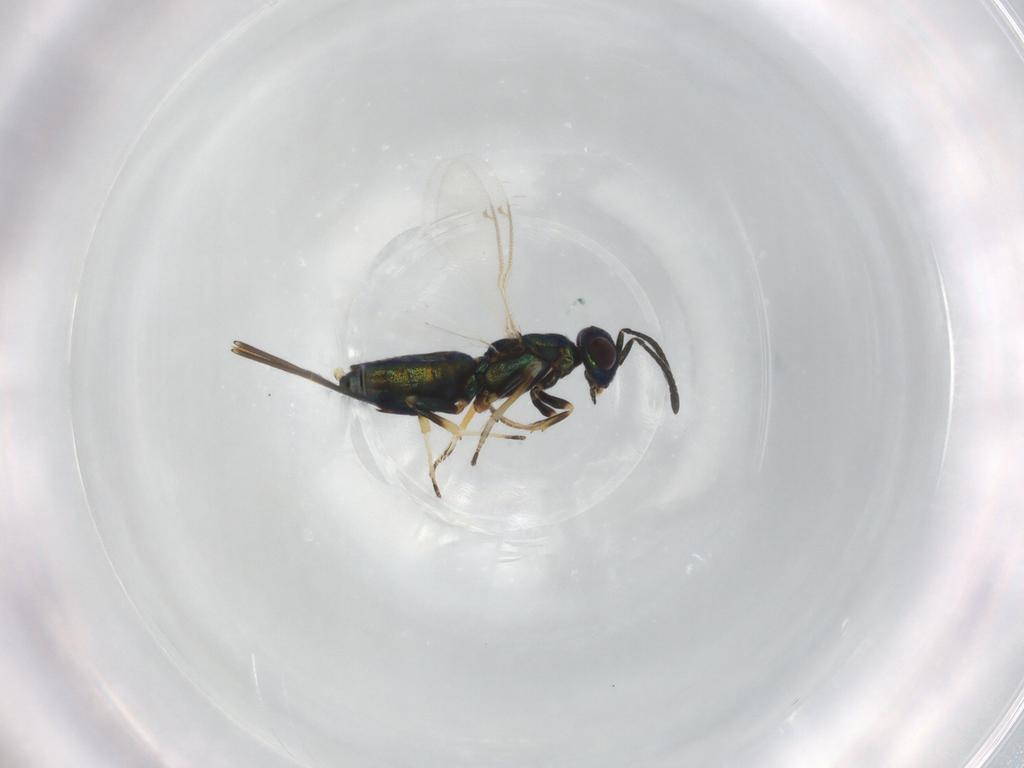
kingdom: Animalia
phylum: Arthropoda
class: Insecta
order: Hymenoptera
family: Eupelmidae
